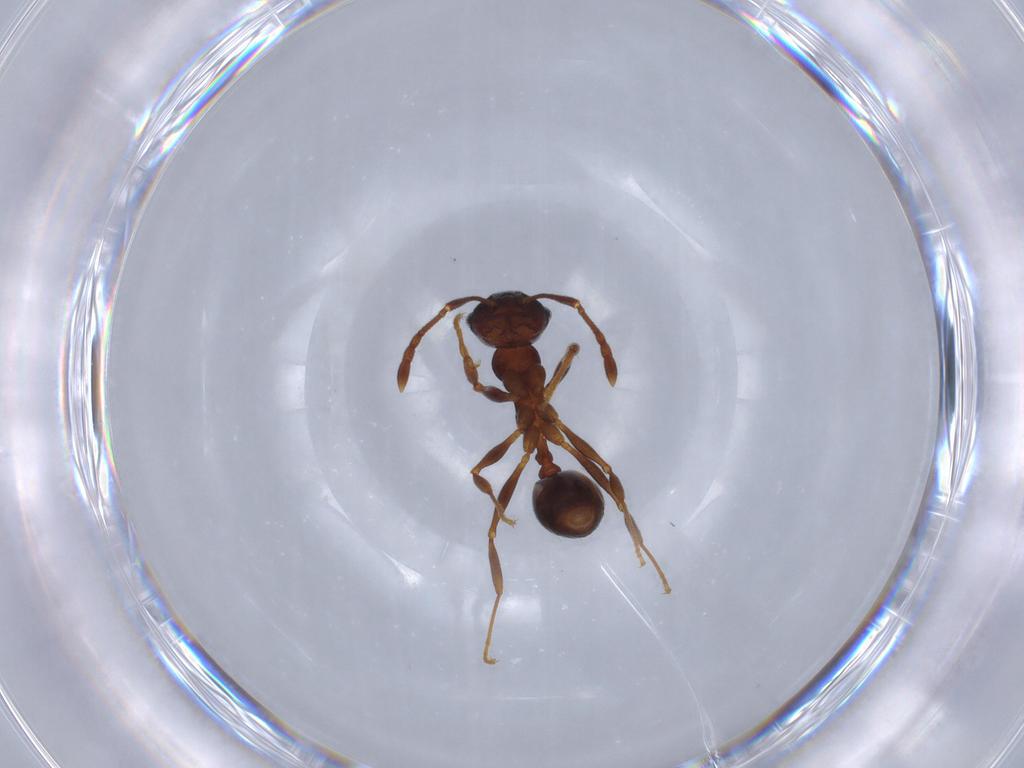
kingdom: Animalia
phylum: Arthropoda
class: Insecta
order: Hymenoptera
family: Formicidae
